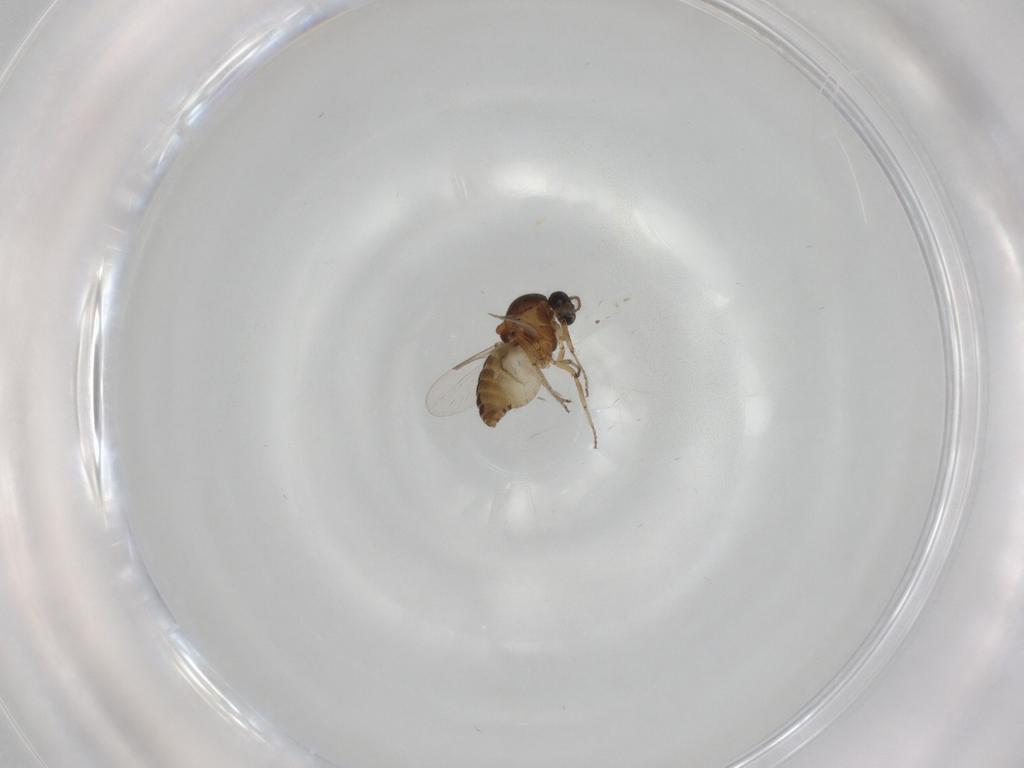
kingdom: Animalia
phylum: Arthropoda
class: Insecta
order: Diptera
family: Ceratopogonidae
